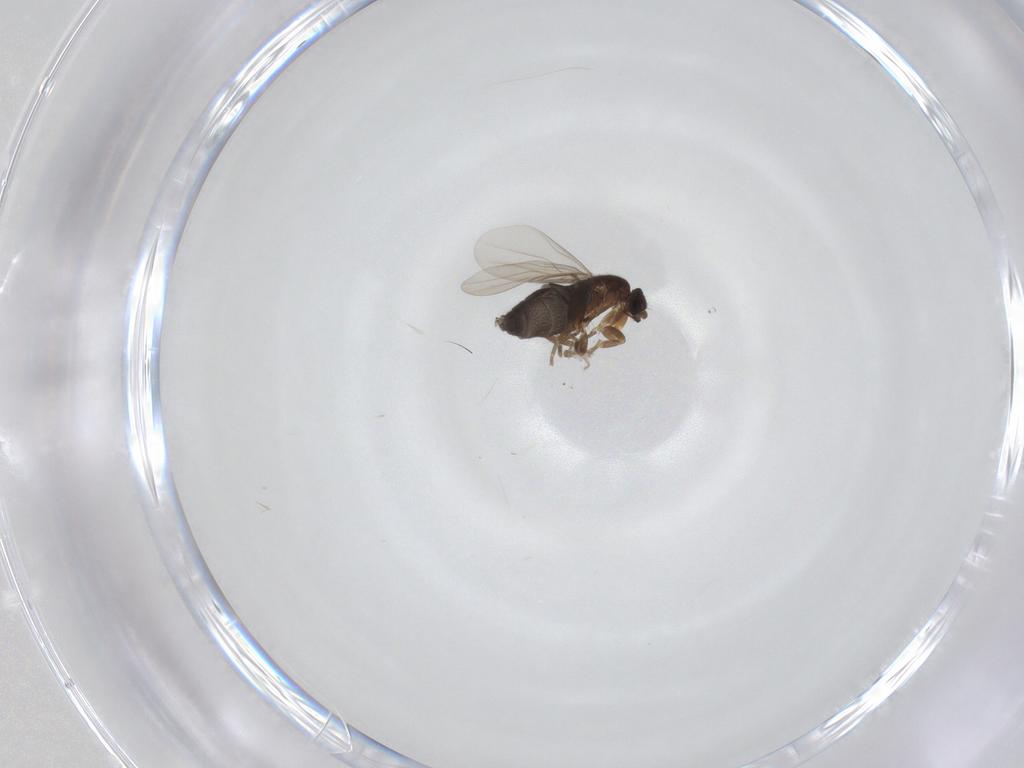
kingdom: Animalia
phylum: Arthropoda
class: Insecta
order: Diptera
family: Phoridae
